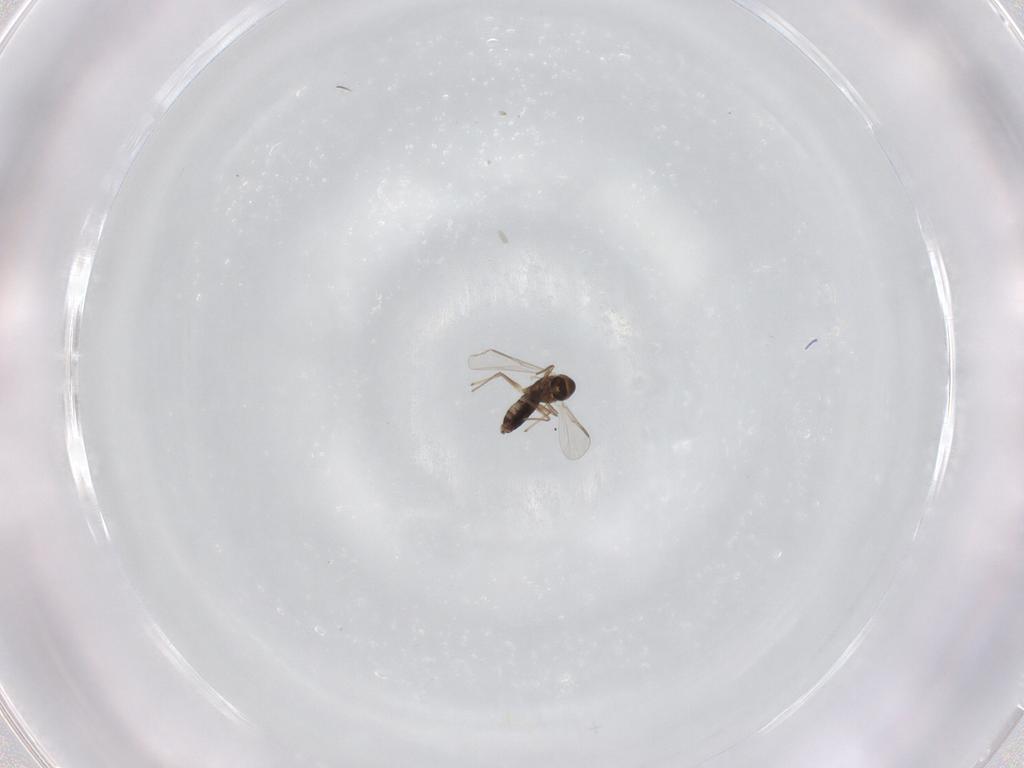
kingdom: Animalia
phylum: Arthropoda
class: Insecta
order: Diptera
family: Chironomidae
